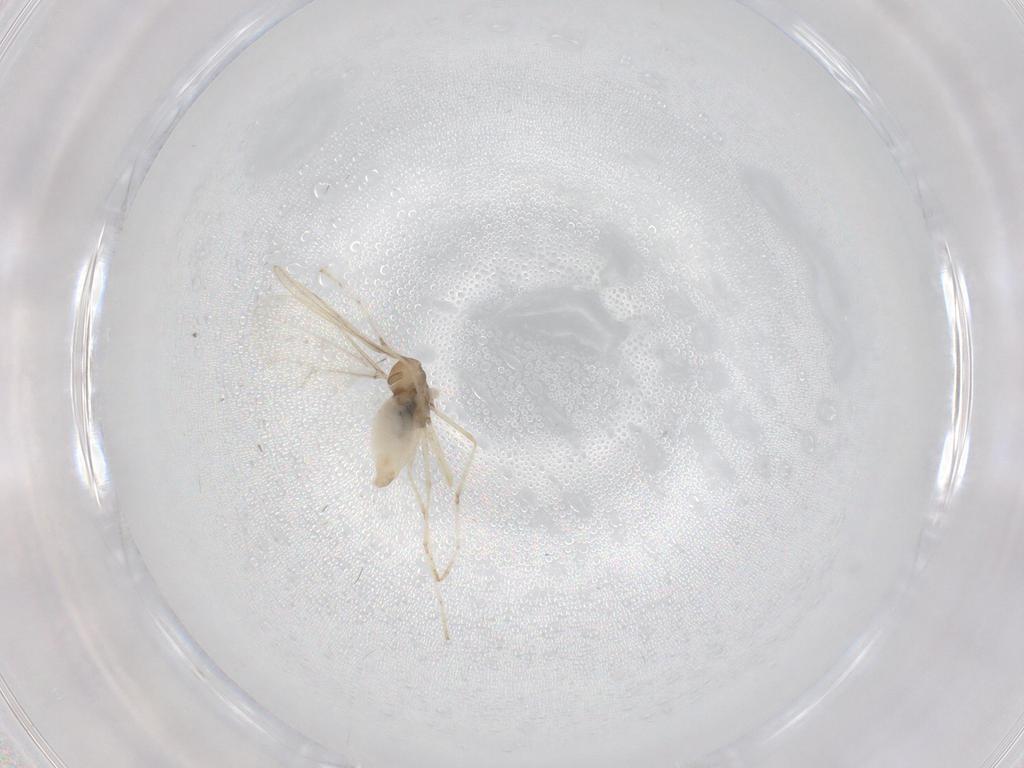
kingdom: Animalia
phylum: Arthropoda
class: Insecta
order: Diptera
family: Cecidomyiidae
